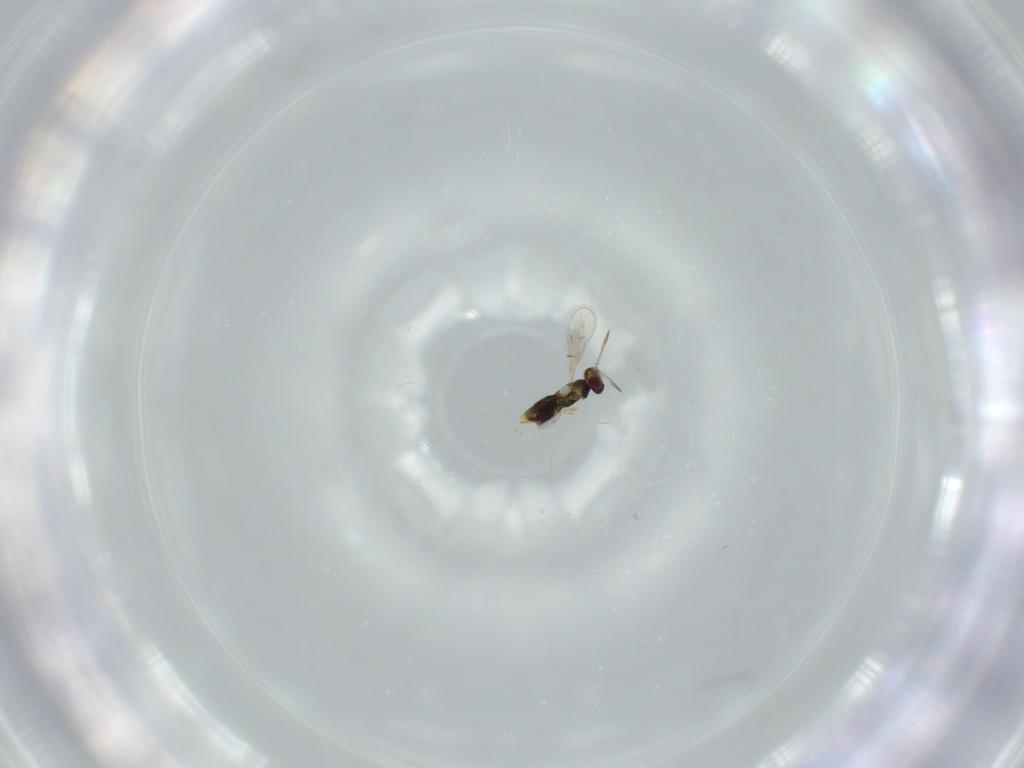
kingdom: Animalia
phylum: Arthropoda
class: Insecta
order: Hymenoptera
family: Aphelinidae
